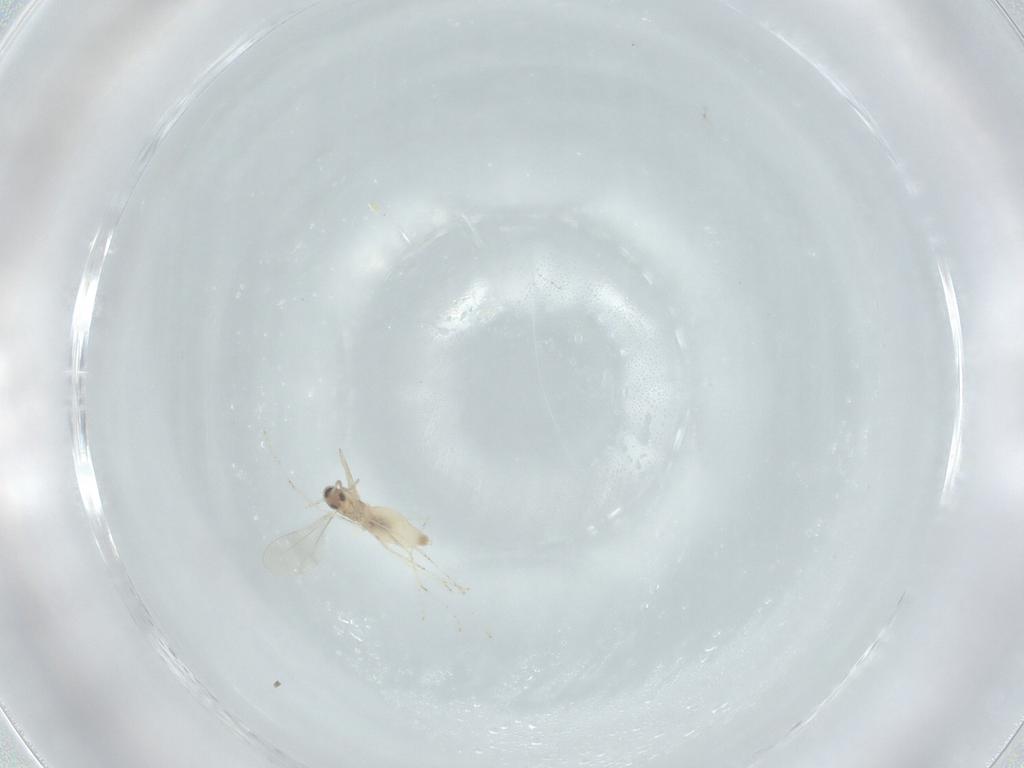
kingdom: Animalia
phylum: Arthropoda
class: Insecta
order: Diptera
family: Cecidomyiidae
